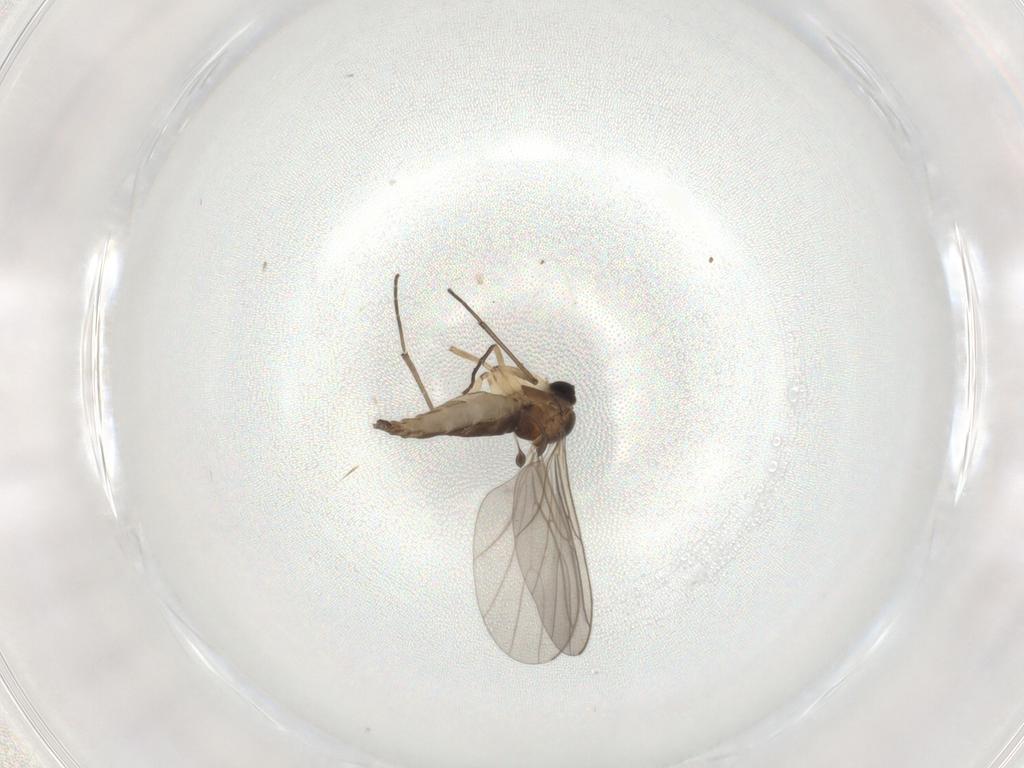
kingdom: Animalia
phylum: Arthropoda
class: Insecta
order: Diptera
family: Sciaridae
